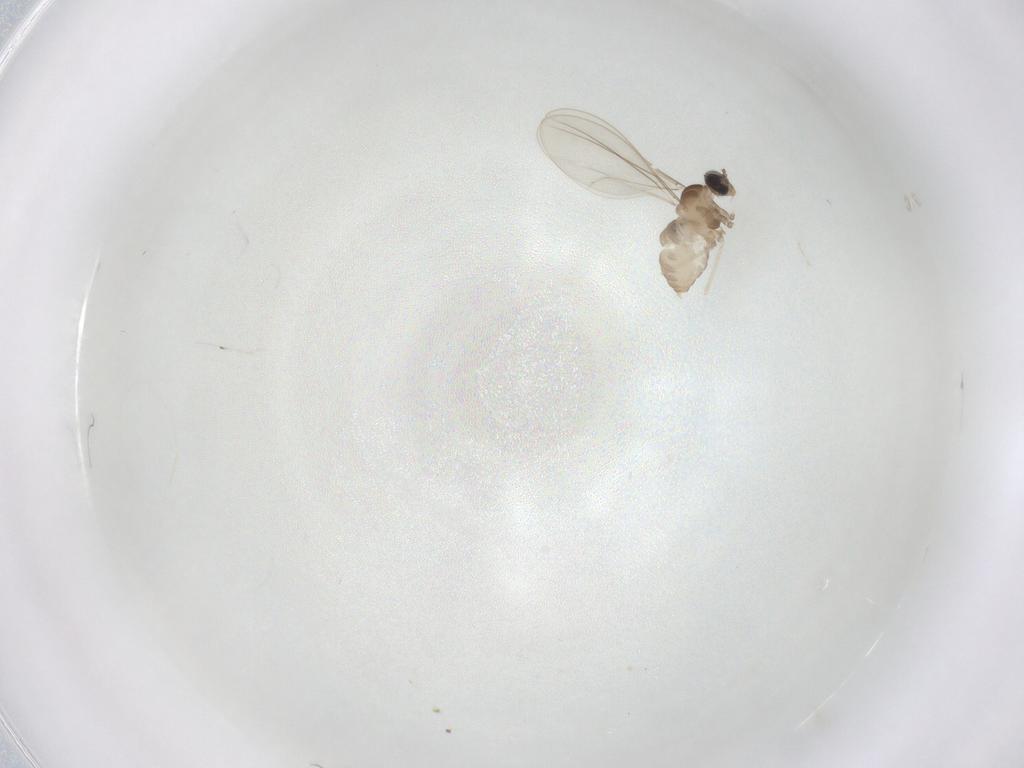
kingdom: Animalia
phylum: Arthropoda
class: Insecta
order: Diptera
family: Cecidomyiidae
